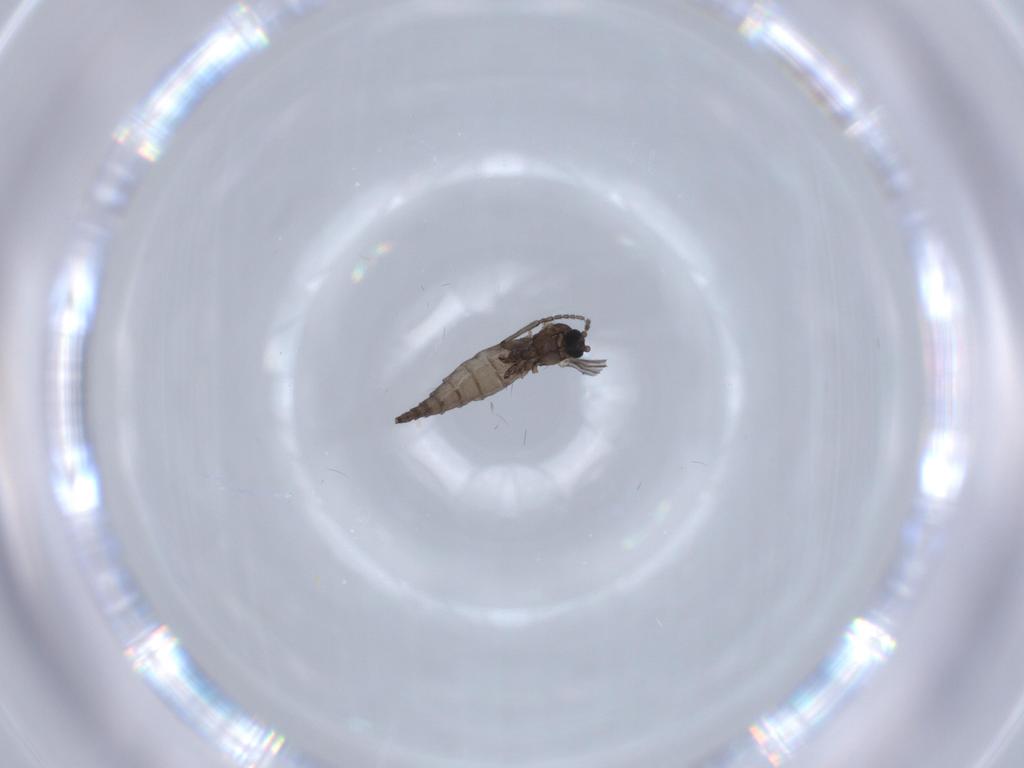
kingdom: Animalia
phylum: Arthropoda
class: Insecta
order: Diptera
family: Sciaridae
